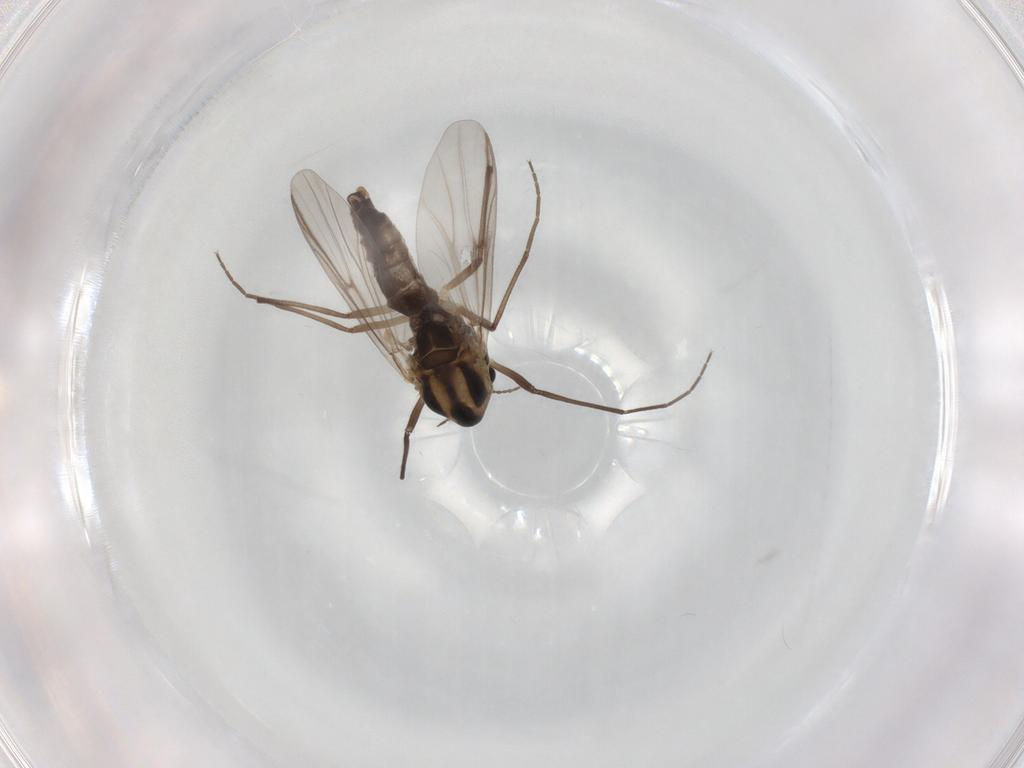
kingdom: Animalia
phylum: Arthropoda
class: Insecta
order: Diptera
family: Chironomidae
